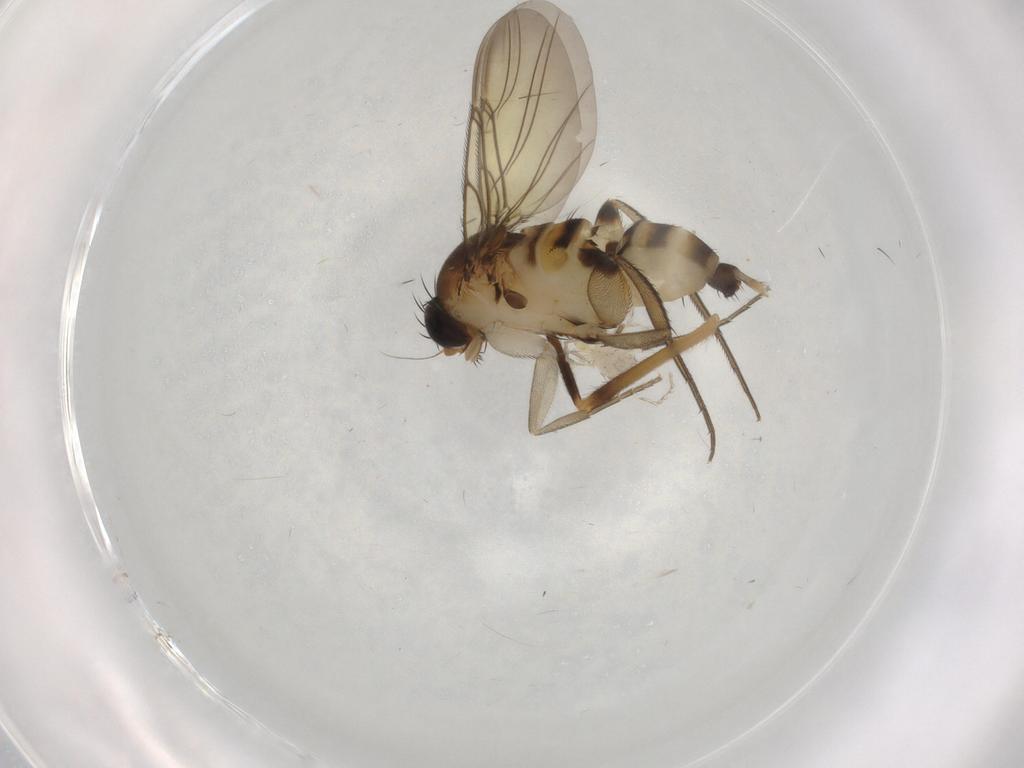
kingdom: Animalia
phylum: Arthropoda
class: Insecta
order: Diptera
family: Phoridae
